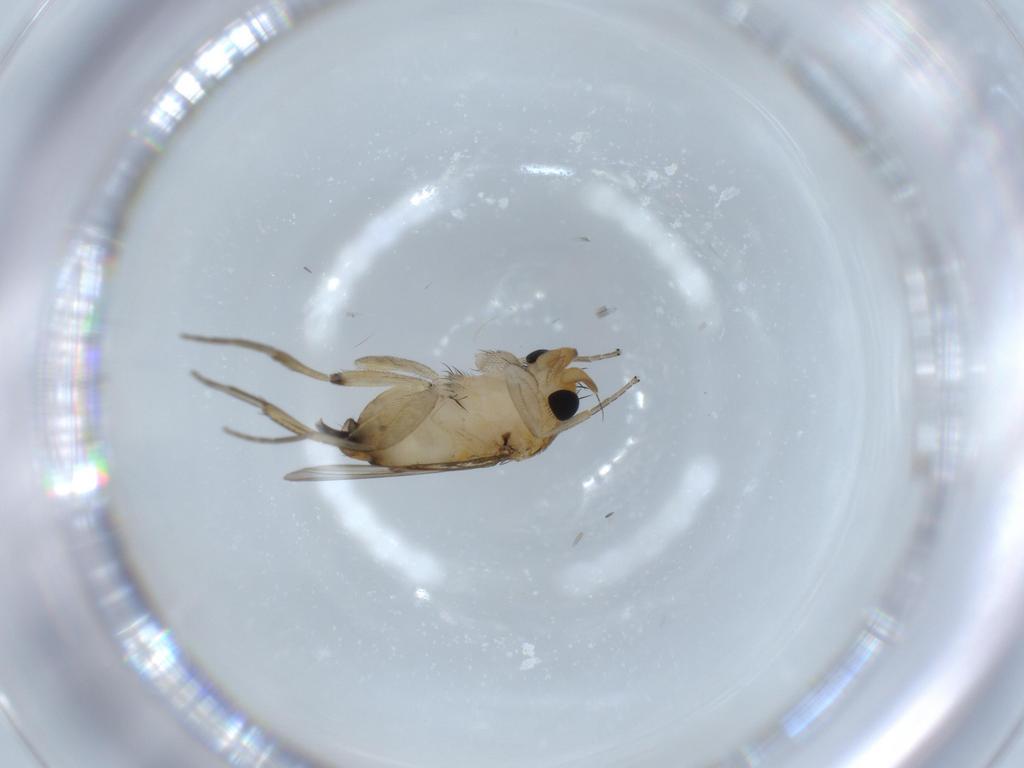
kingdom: Animalia
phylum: Arthropoda
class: Insecta
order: Diptera
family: Phoridae
